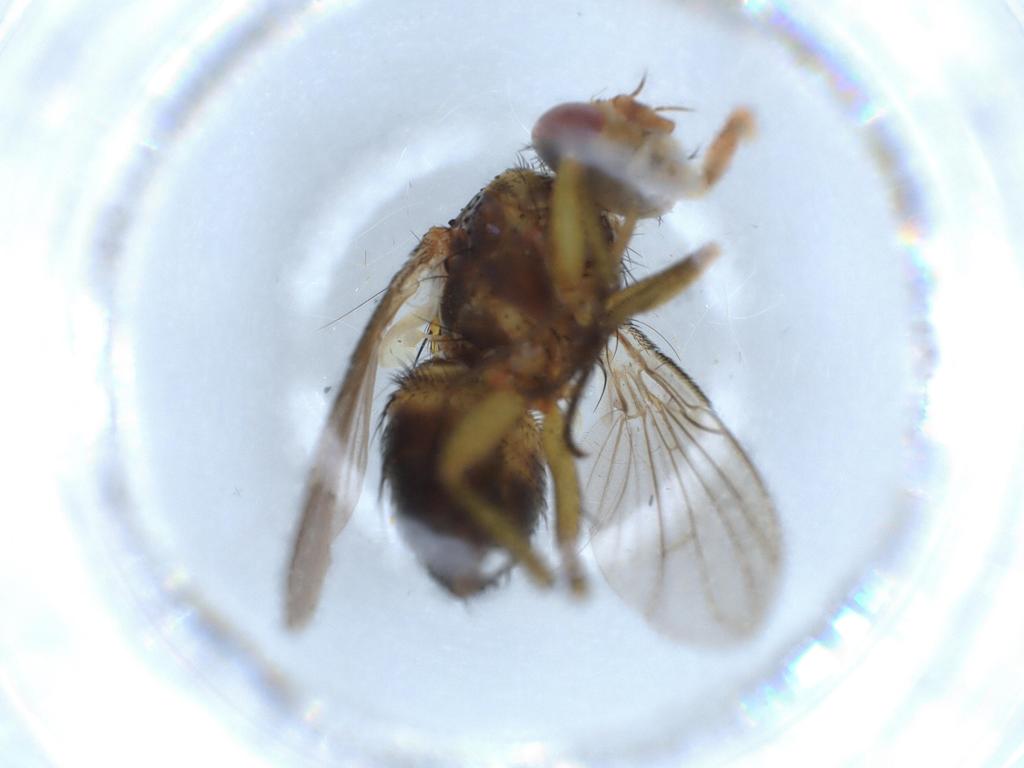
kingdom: Animalia
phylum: Arthropoda
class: Insecta
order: Diptera
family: Tachinidae
